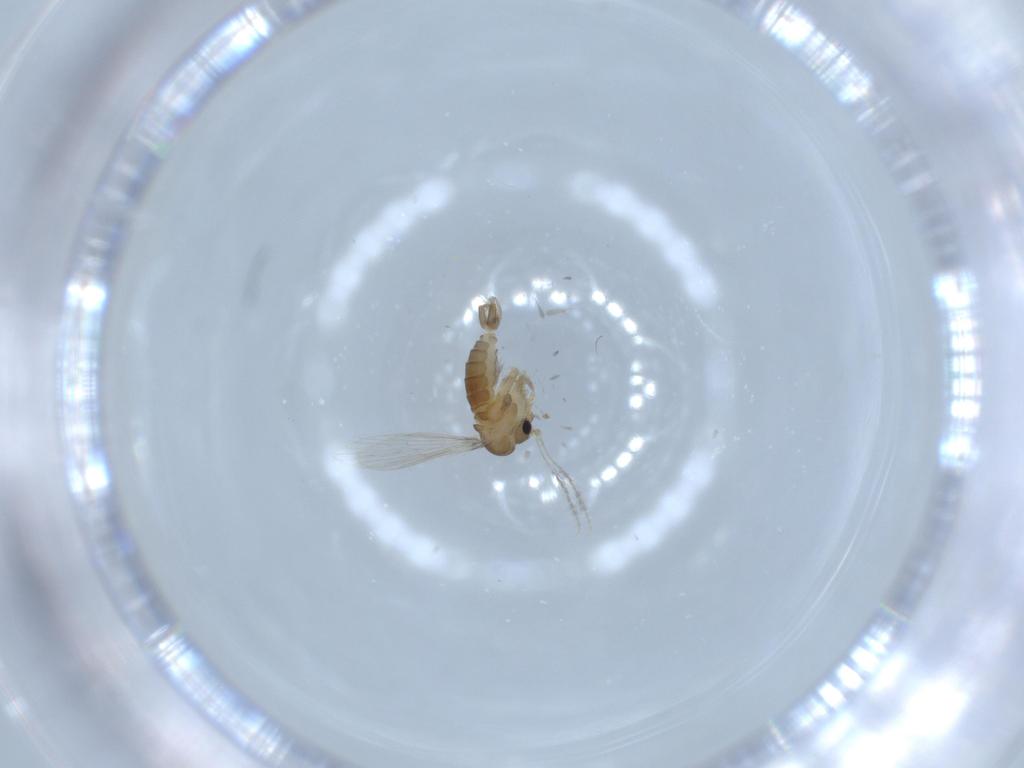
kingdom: Animalia
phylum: Arthropoda
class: Insecta
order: Diptera
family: Psychodidae
